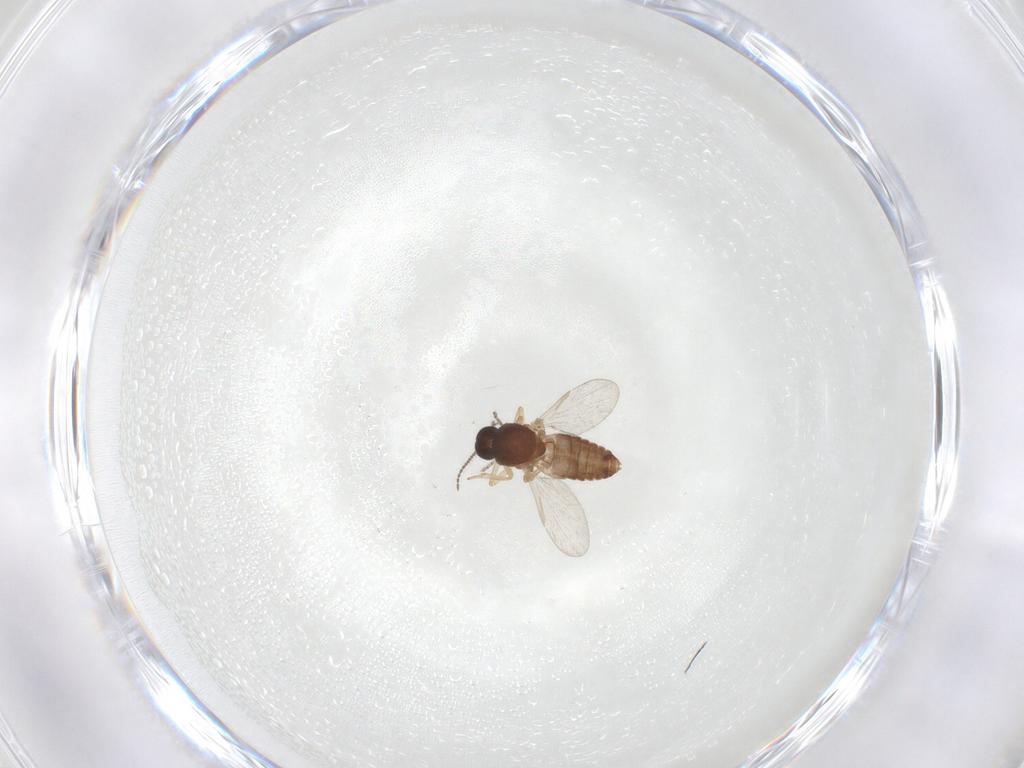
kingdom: Animalia
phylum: Arthropoda
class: Insecta
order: Diptera
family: Ceratopogonidae
